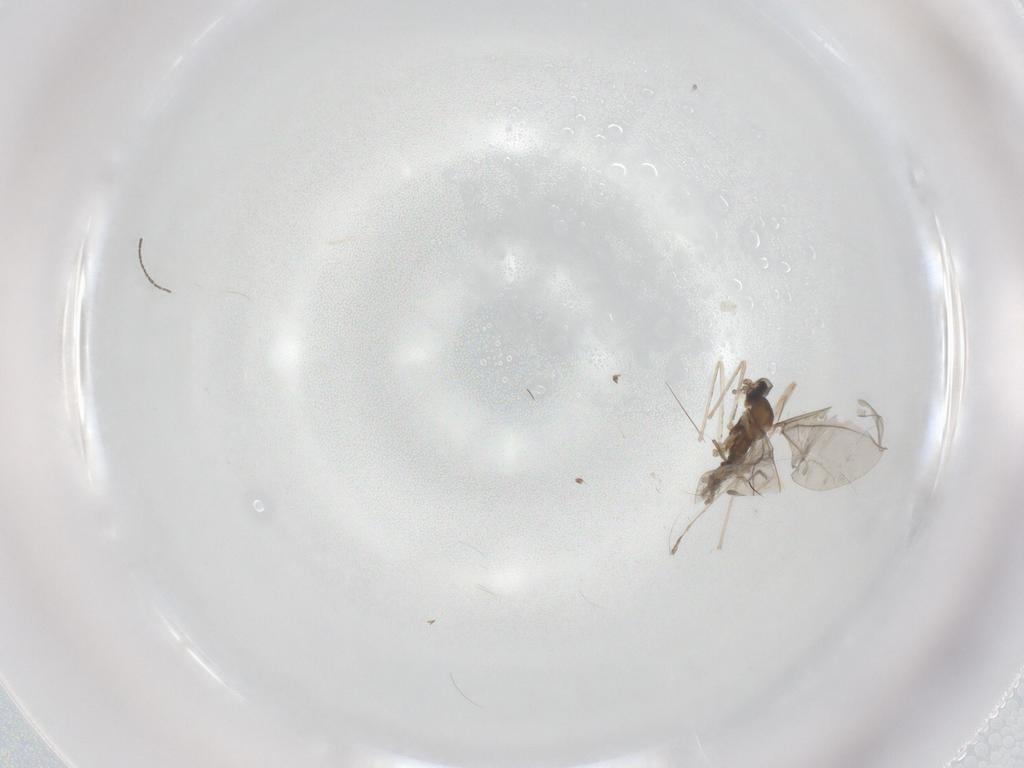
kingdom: Animalia
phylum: Arthropoda
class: Insecta
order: Diptera
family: Cecidomyiidae
